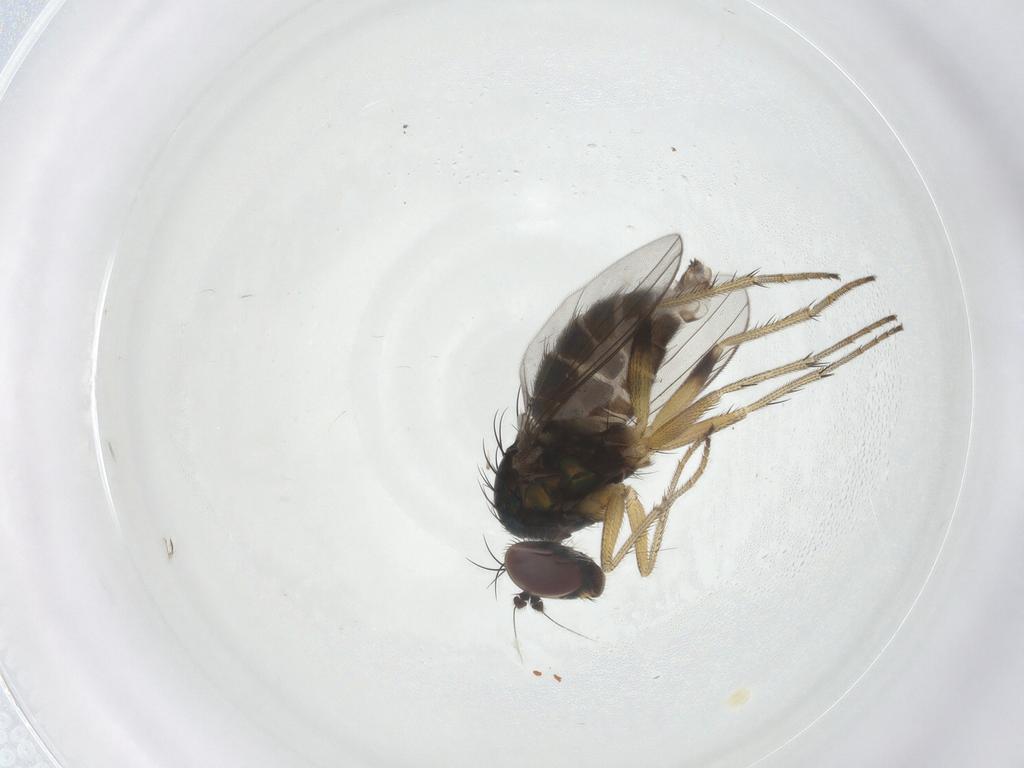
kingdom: Animalia
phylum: Arthropoda
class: Insecta
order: Diptera
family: Dolichopodidae
